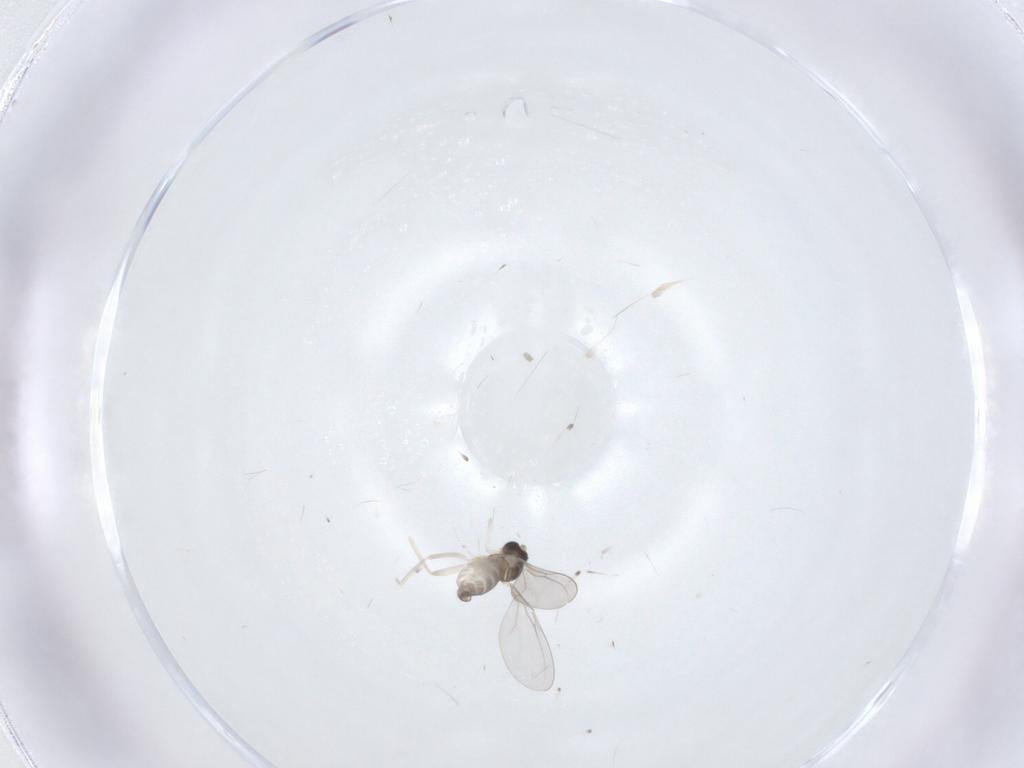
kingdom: Animalia
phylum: Arthropoda
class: Insecta
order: Diptera
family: Cecidomyiidae
